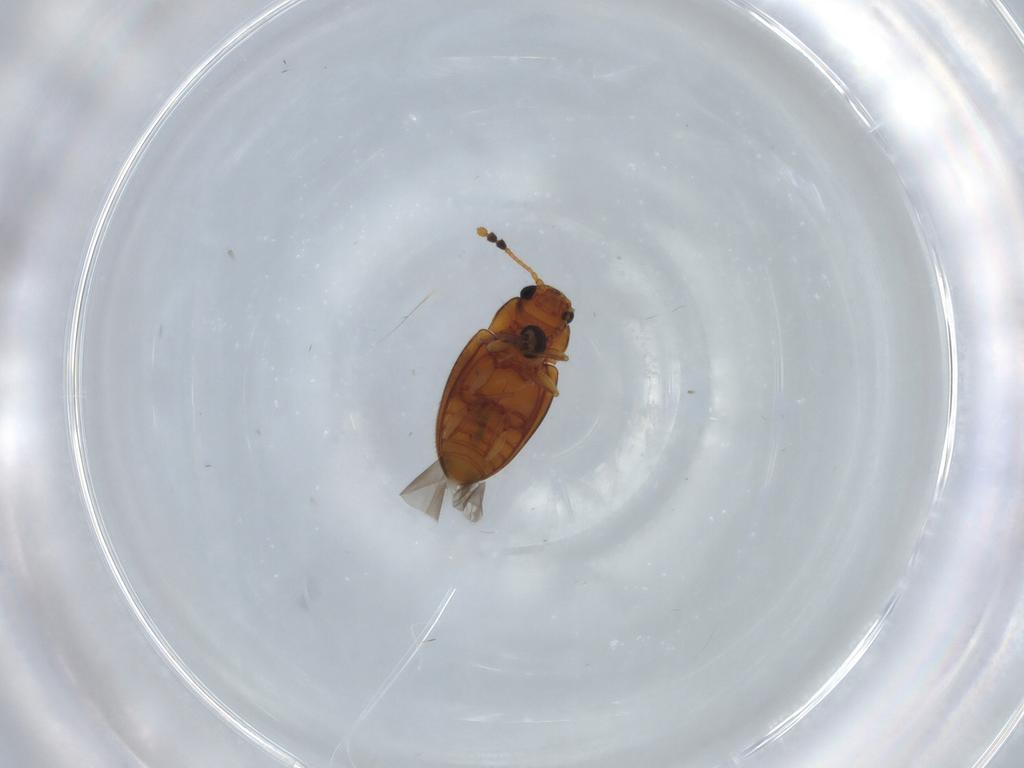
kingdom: Animalia
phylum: Arthropoda
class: Insecta
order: Coleoptera
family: Erotylidae
